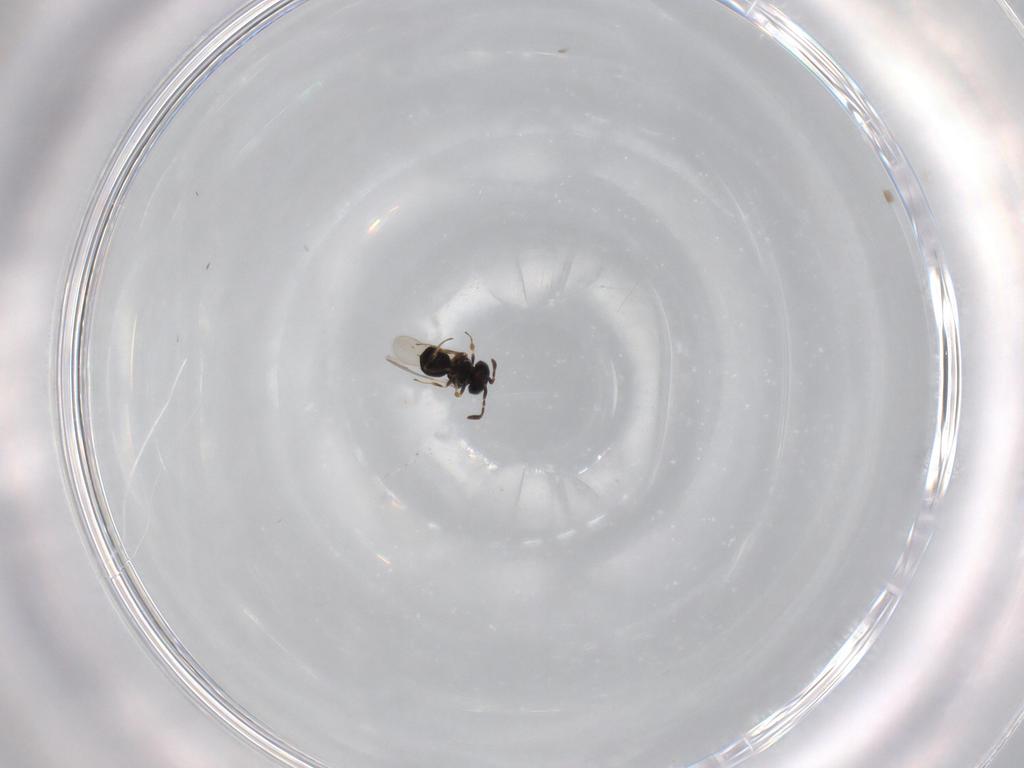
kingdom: Animalia
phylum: Arthropoda
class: Insecta
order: Hymenoptera
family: Scelionidae
